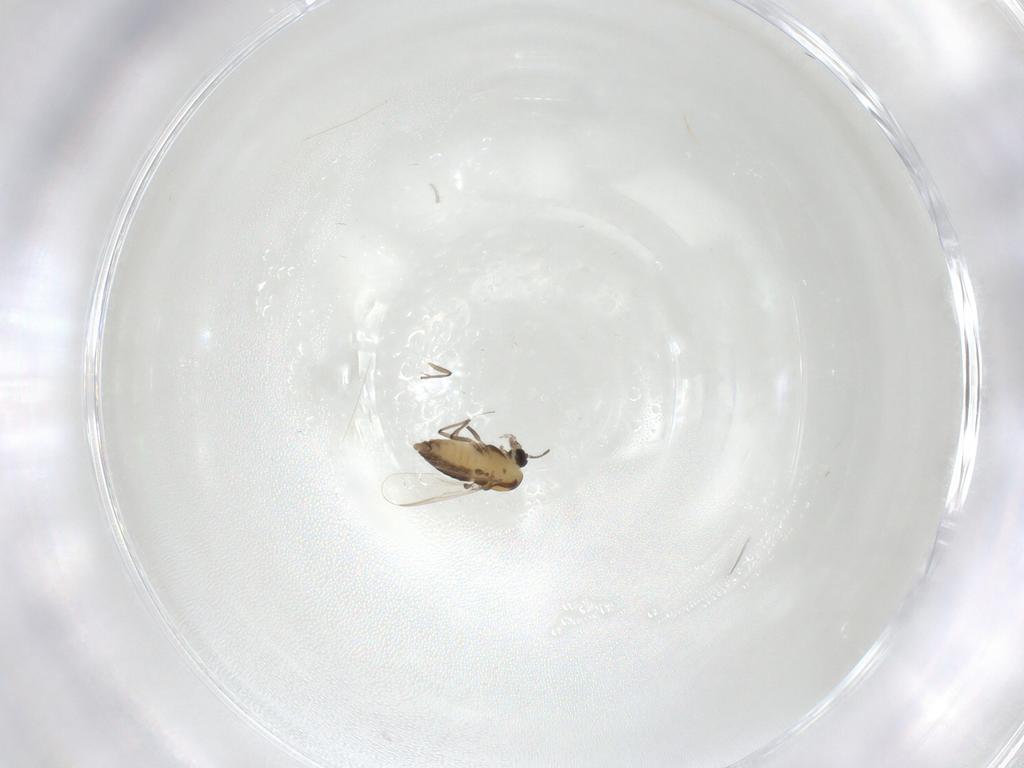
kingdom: Animalia
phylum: Arthropoda
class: Insecta
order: Diptera
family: Chironomidae
